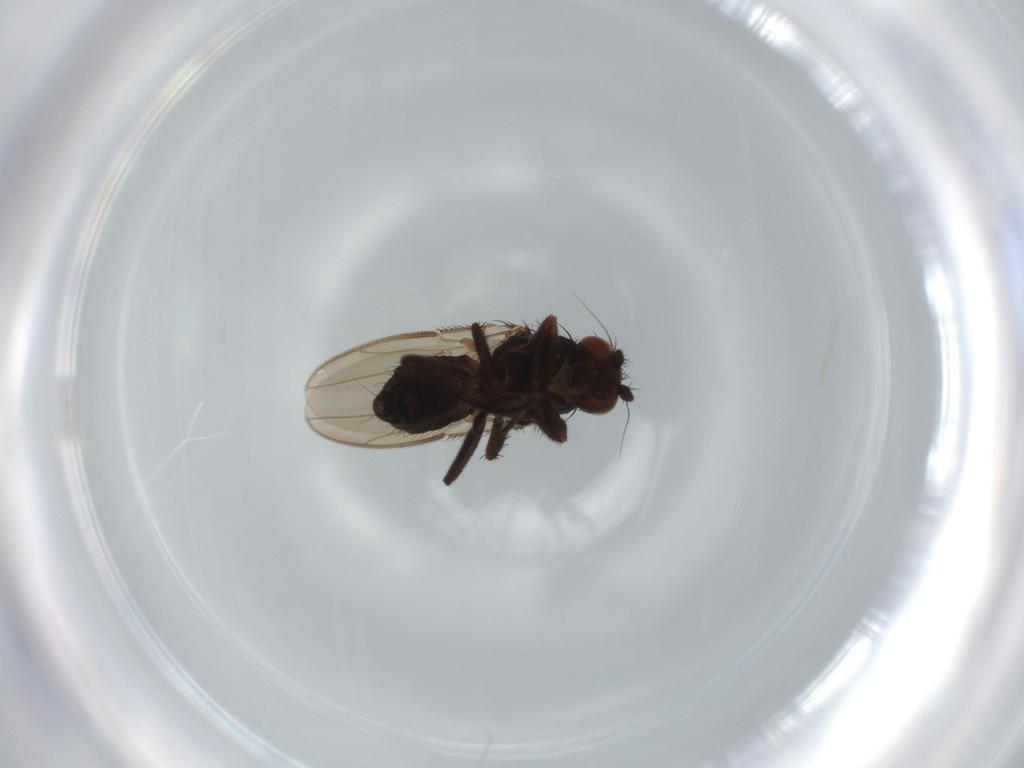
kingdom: Animalia
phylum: Arthropoda
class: Insecta
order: Diptera
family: Sphaeroceridae
